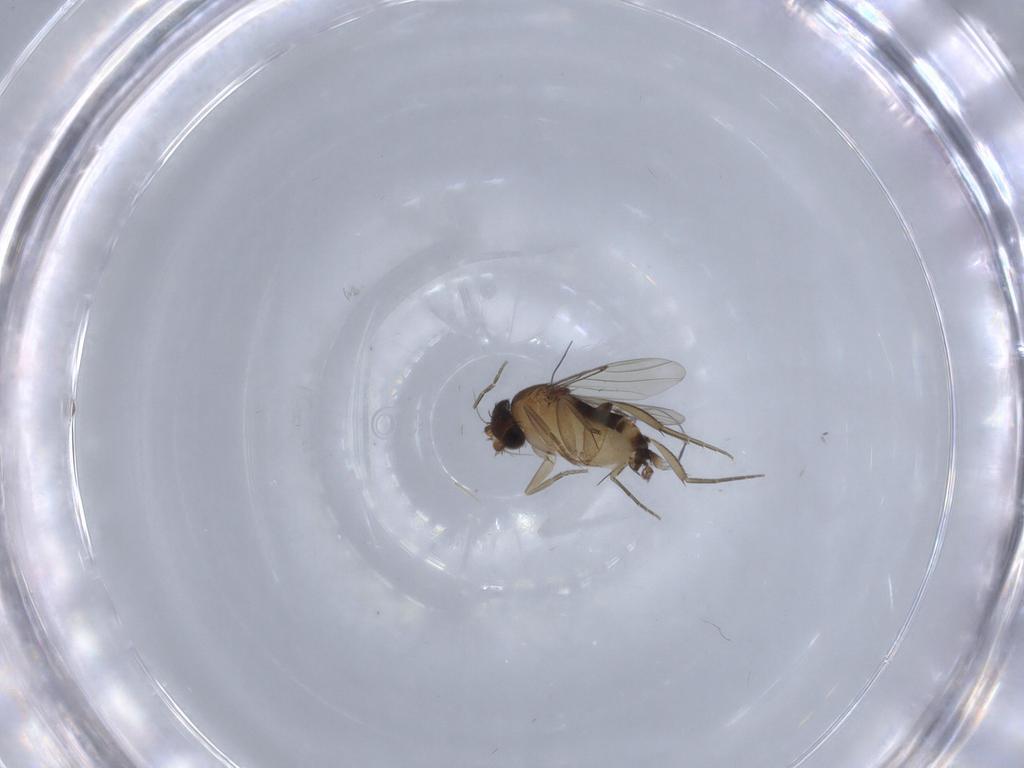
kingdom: Animalia
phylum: Arthropoda
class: Insecta
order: Diptera
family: Phoridae
